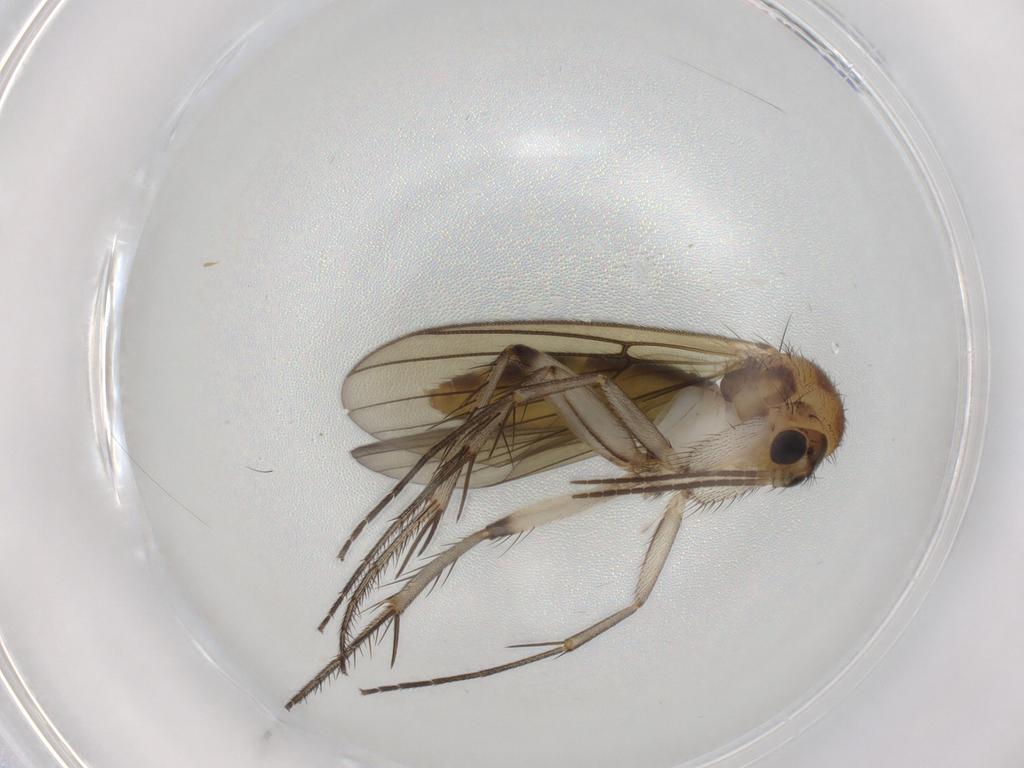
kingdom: Animalia
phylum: Arthropoda
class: Insecta
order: Diptera
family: Mycetophilidae
